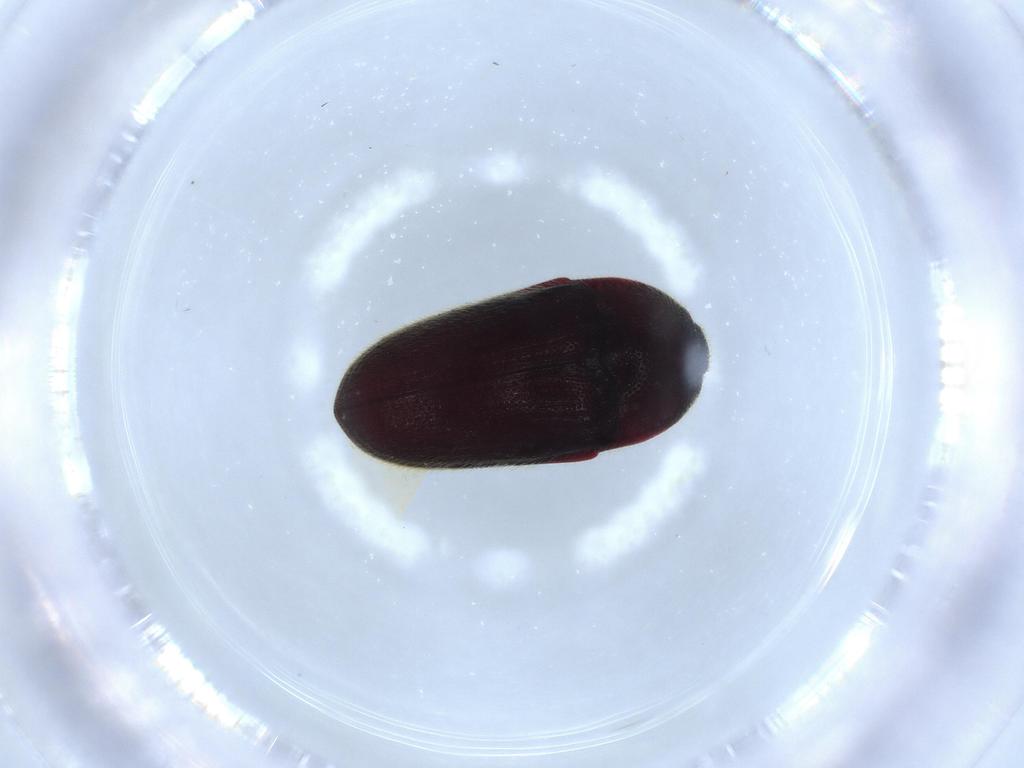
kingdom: Animalia
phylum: Arthropoda
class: Insecta
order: Coleoptera
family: Throscidae
